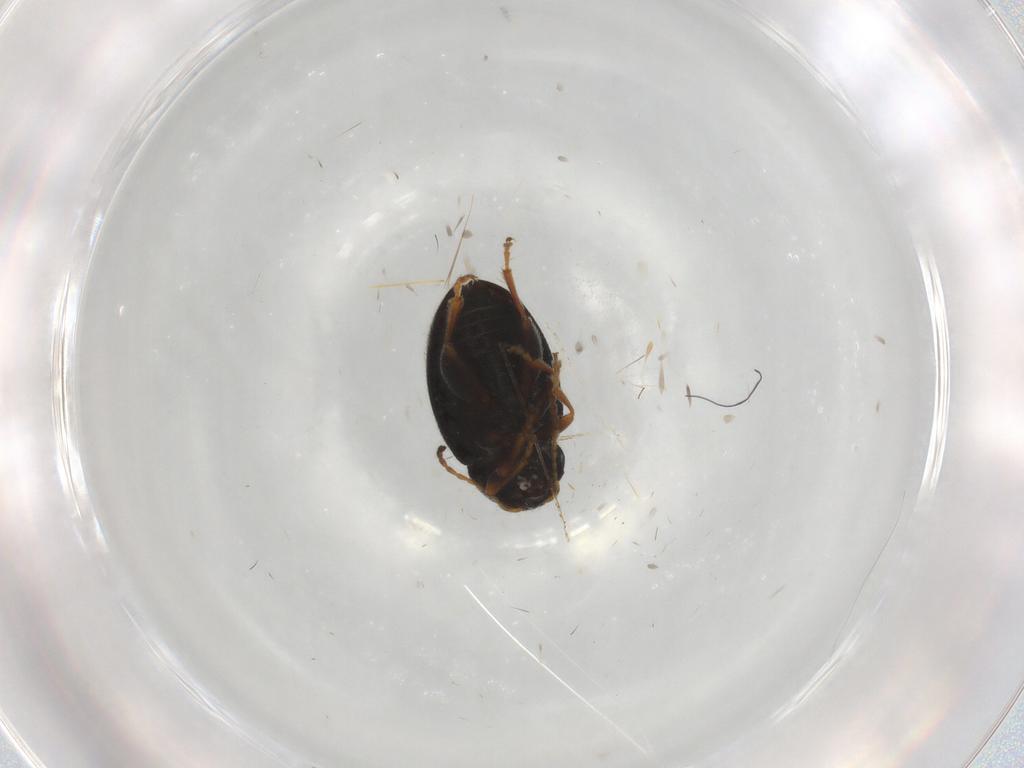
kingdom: Animalia
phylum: Arthropoda
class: Insecta
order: Coleoptera
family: Chrysomelidae
